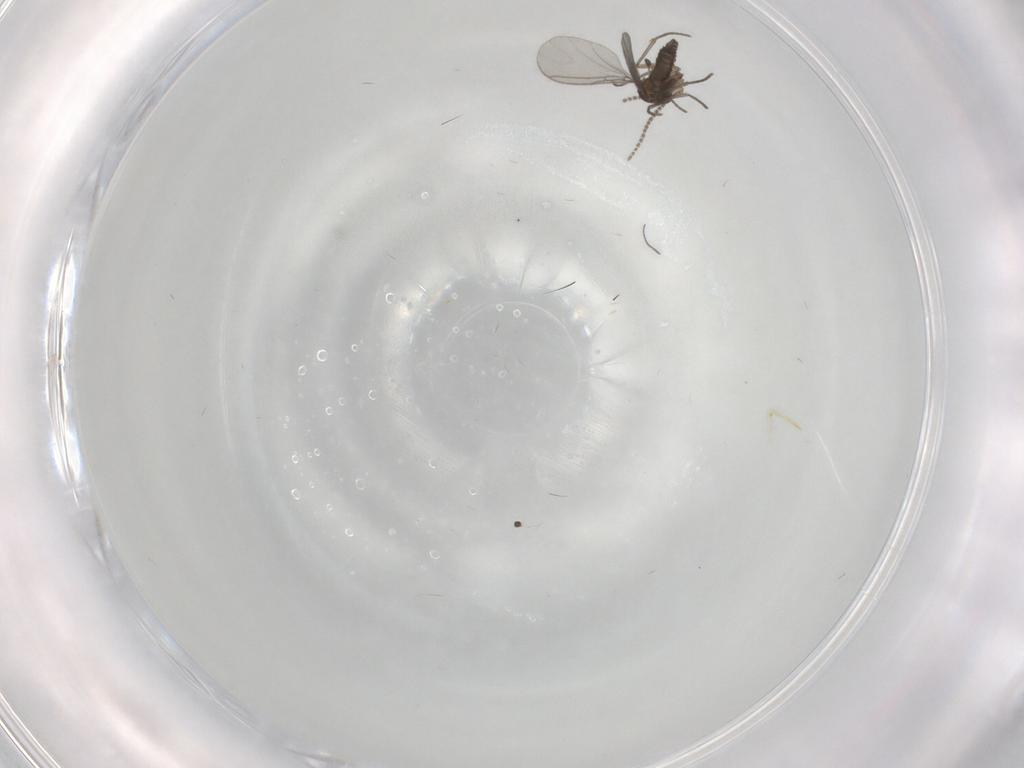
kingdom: Animalia
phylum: Arthropoda
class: Insecta
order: Diptera
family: Sciaridae
